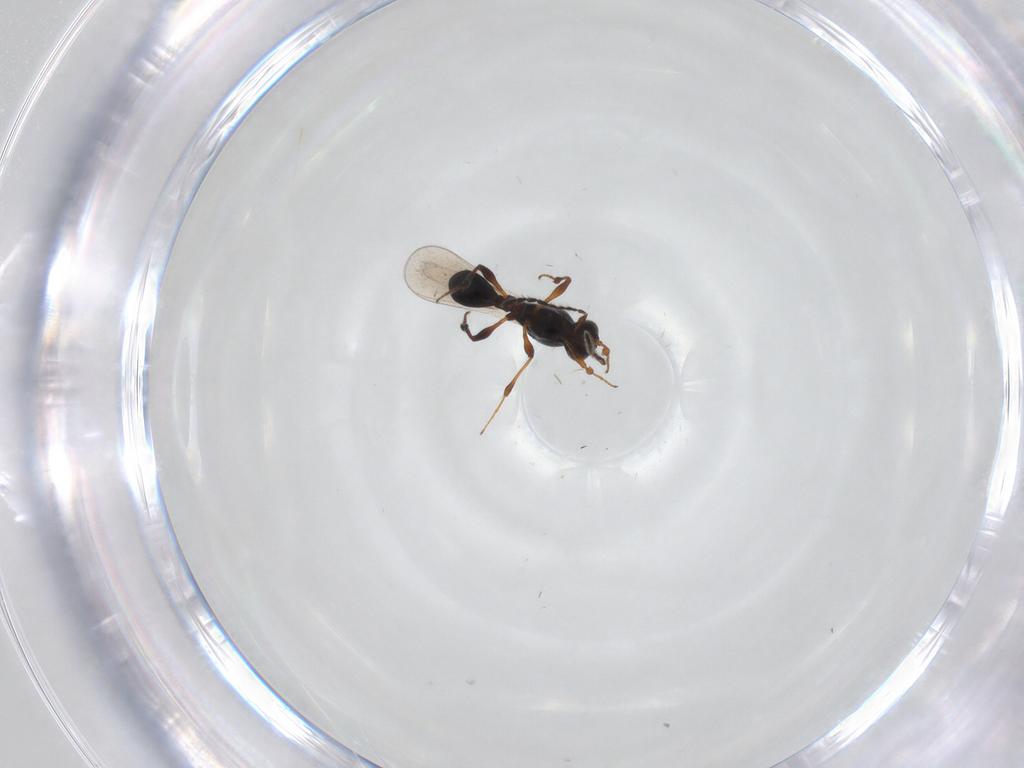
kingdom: Animalia
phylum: Arthropoda
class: Insecta
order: Hymenoptera
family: Platygastridae
